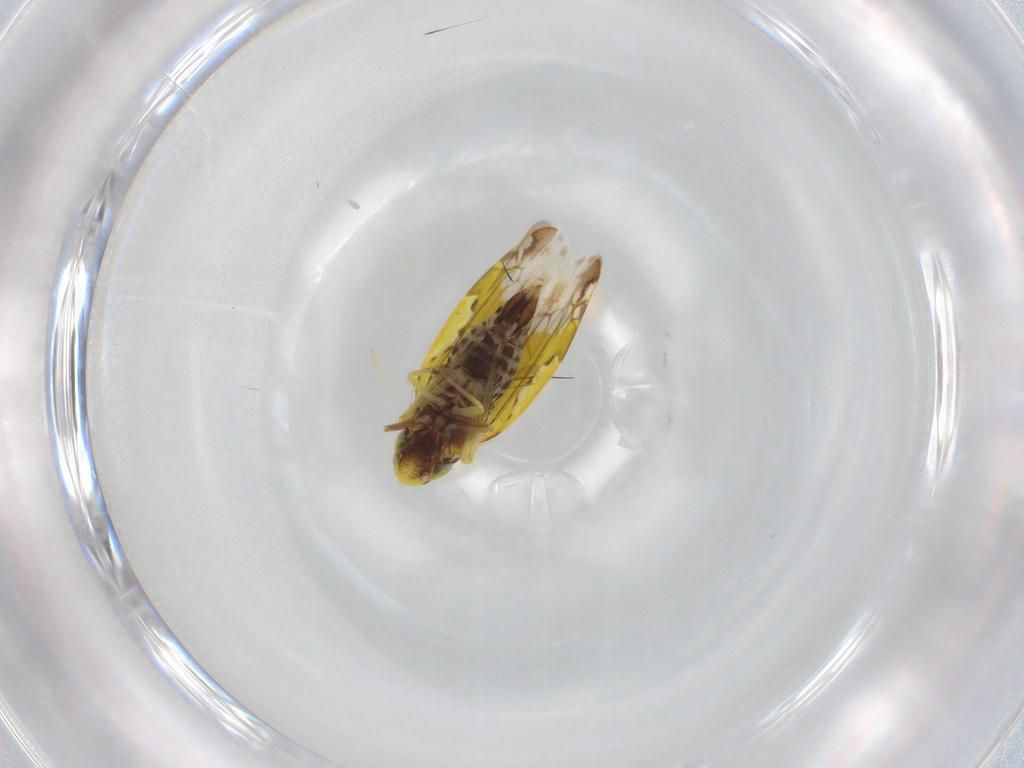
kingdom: Animalia
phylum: Arthropoda
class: Insecta
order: Hemiptera
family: Cicadellidae
